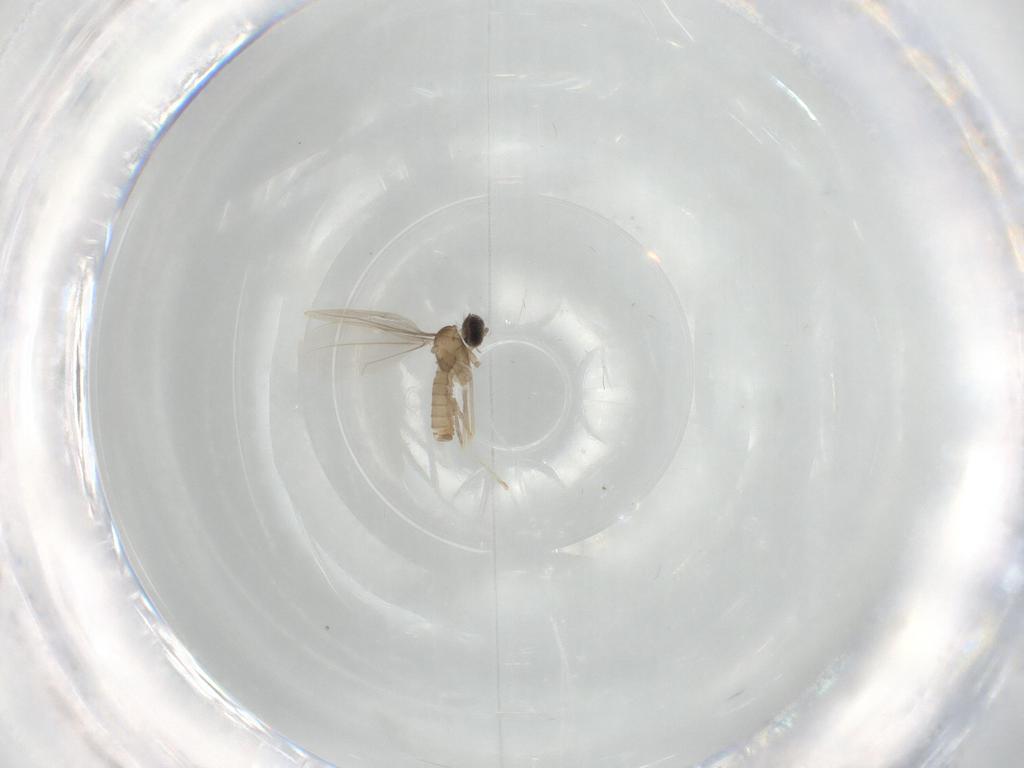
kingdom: Animalia
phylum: Arthropoda
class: Insecta
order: Diptera
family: Cecidomyiidae
